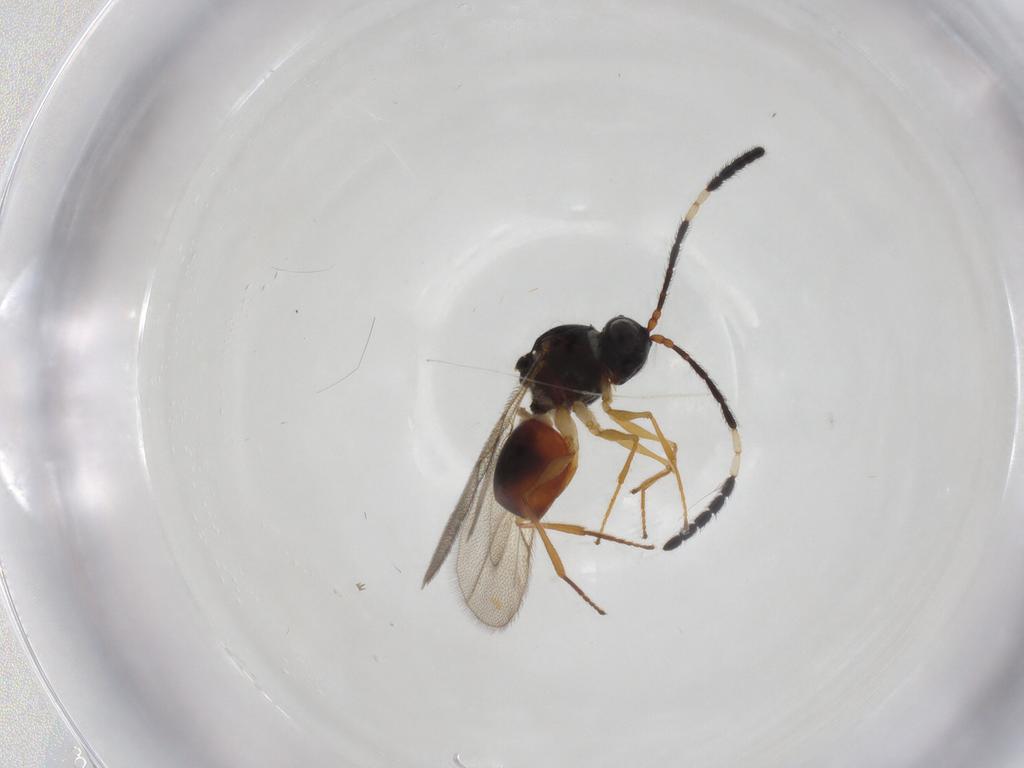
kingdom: Animalia
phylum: Arthropoda
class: Insecta
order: Hymenoptera
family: Figitidae
